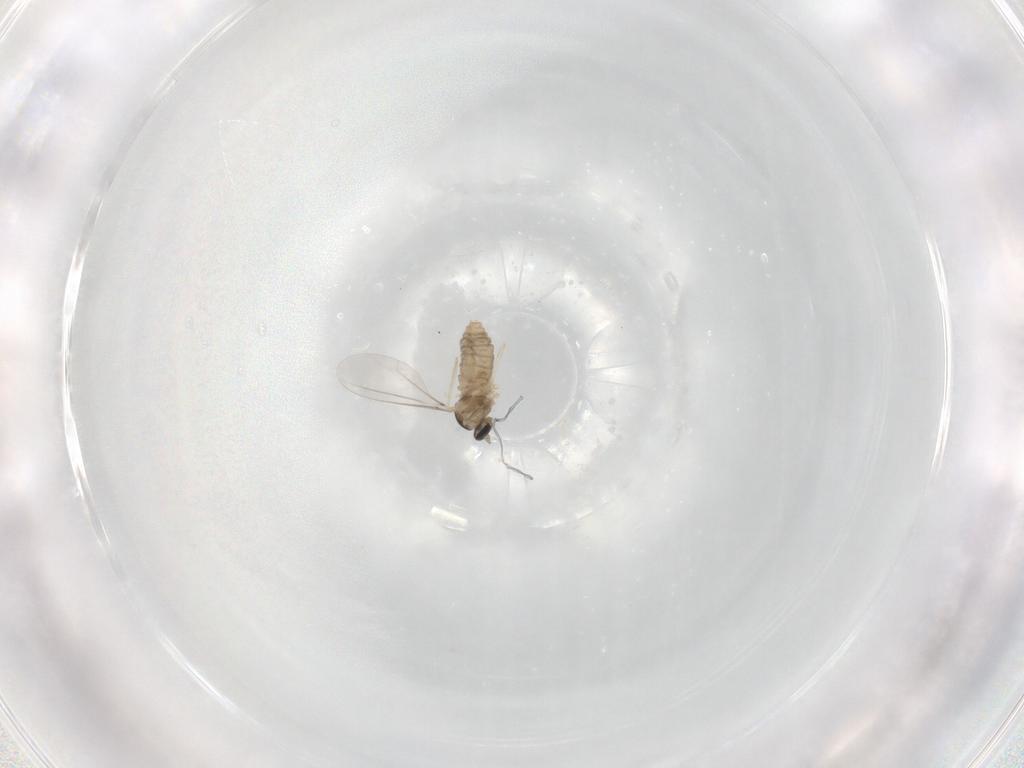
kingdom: Animalia
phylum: Arthropoda
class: Insecta
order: Diptera
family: Cecidomyiidae
